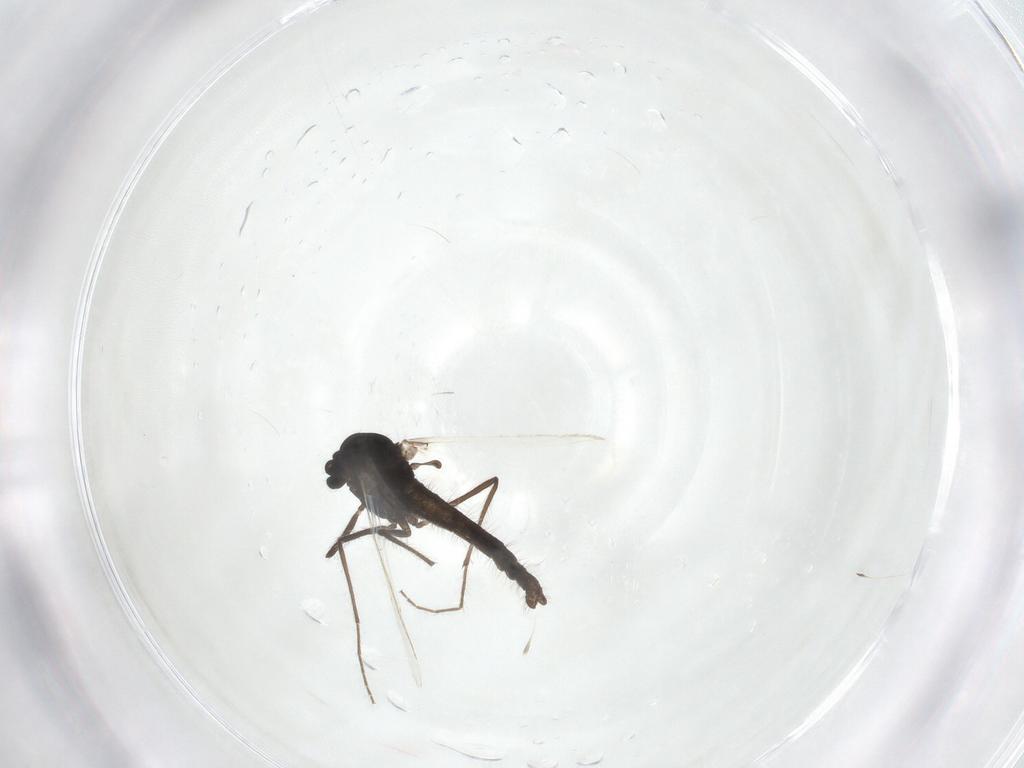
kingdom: Animalia
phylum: Arthropoda
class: Insecta
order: Diptera
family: Chironomidae
